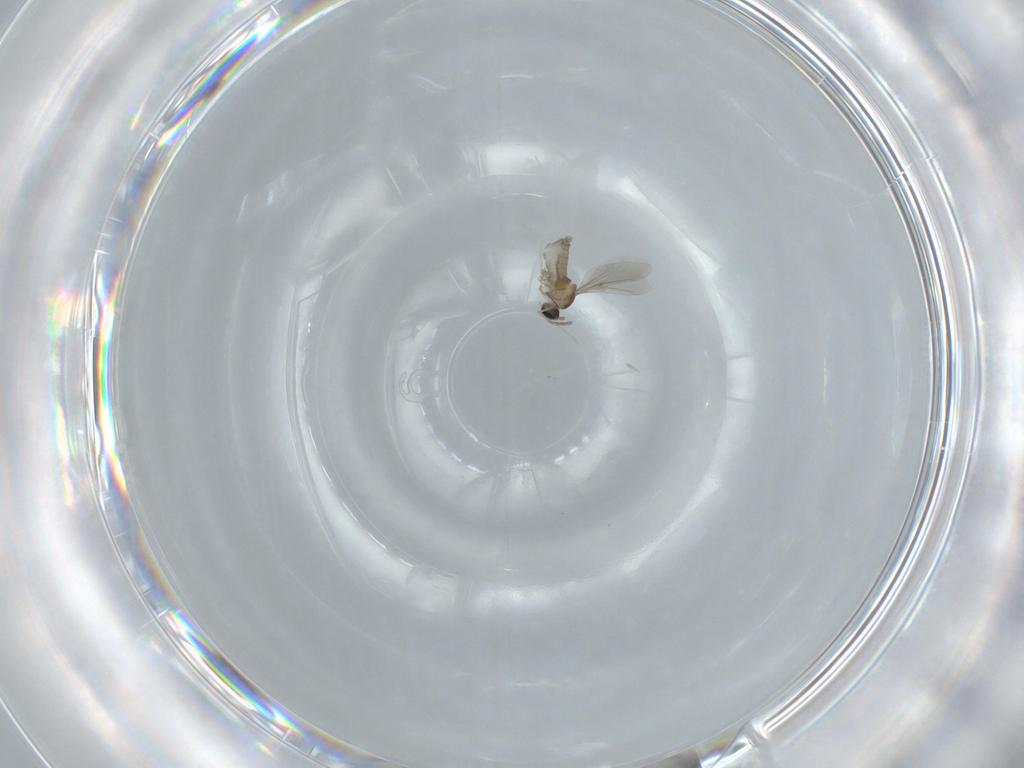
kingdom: Animalia
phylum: Arthropoda
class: Insecta
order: Diptera
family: Cecidomyiidae
